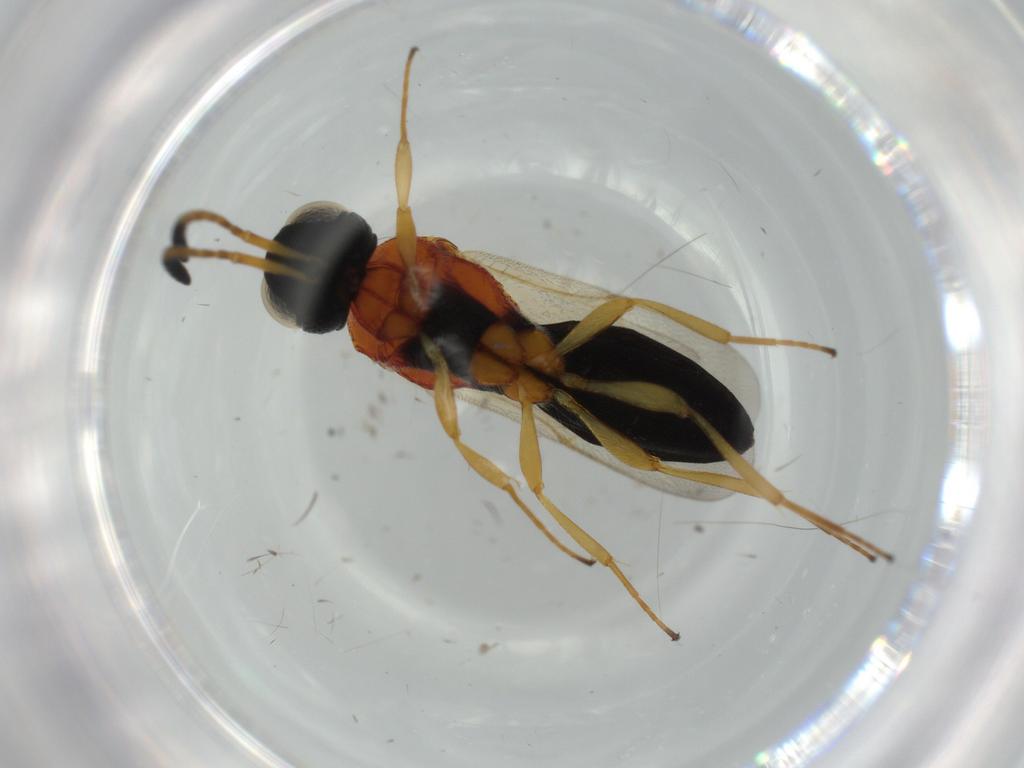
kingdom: Animalia
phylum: Arthropoda
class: Insecta
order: Hymenoptera
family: Scelionidae
